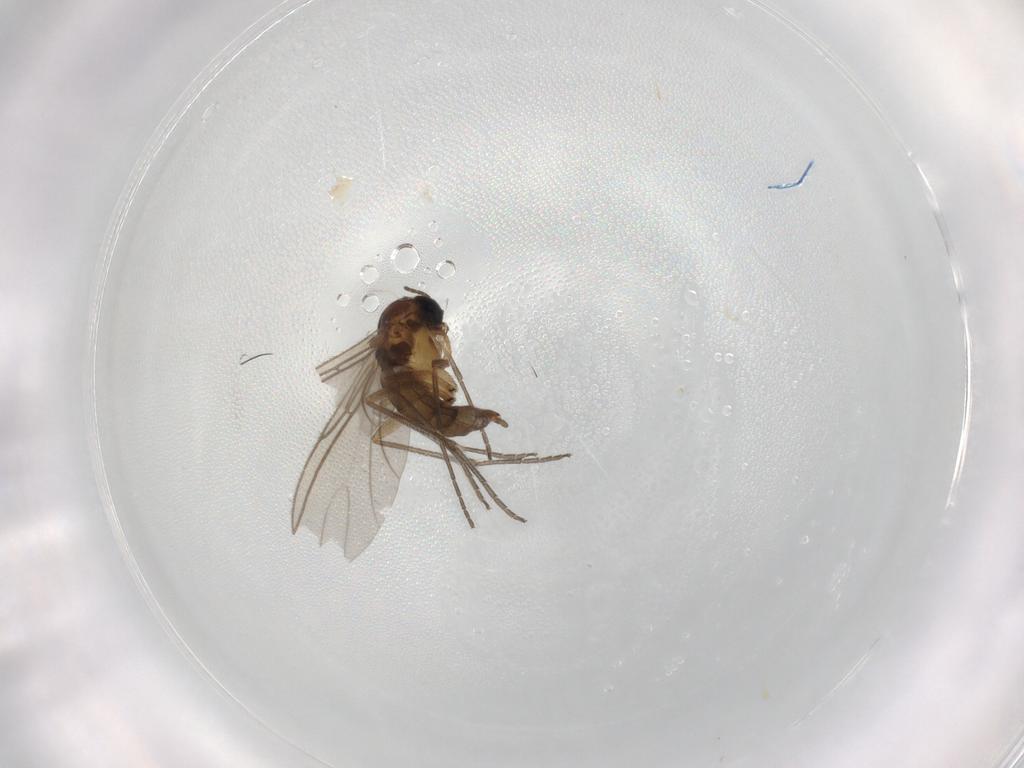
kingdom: Animalia
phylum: Arthropoda
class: Insecta
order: Diptera
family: Sciaridae
